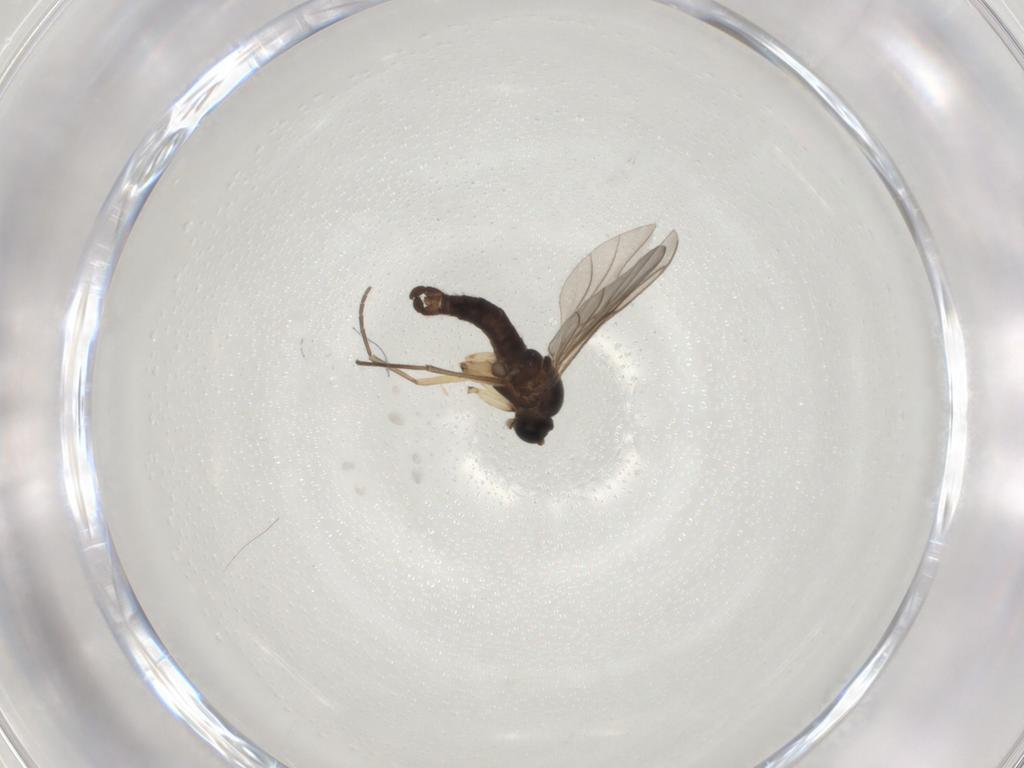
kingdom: Animalia
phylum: Arthropoda
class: Insecta
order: Diptera
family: Sciaridae
